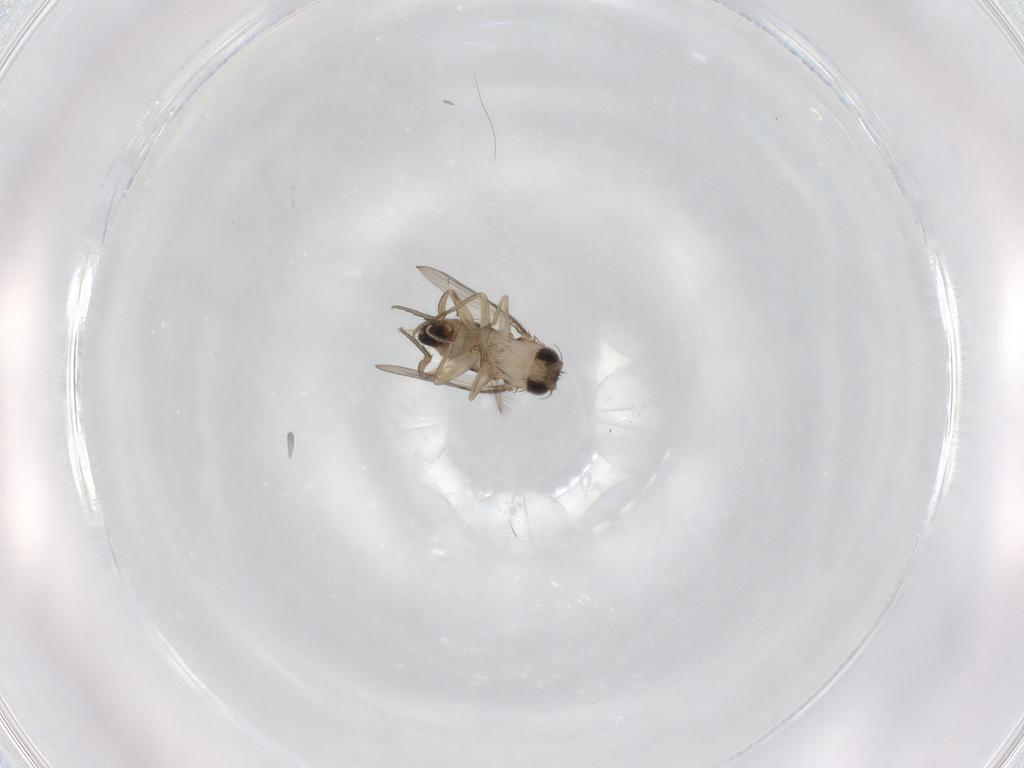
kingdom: Animalia
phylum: Arthropoda
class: Insecta
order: Diptera
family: Phoridae
